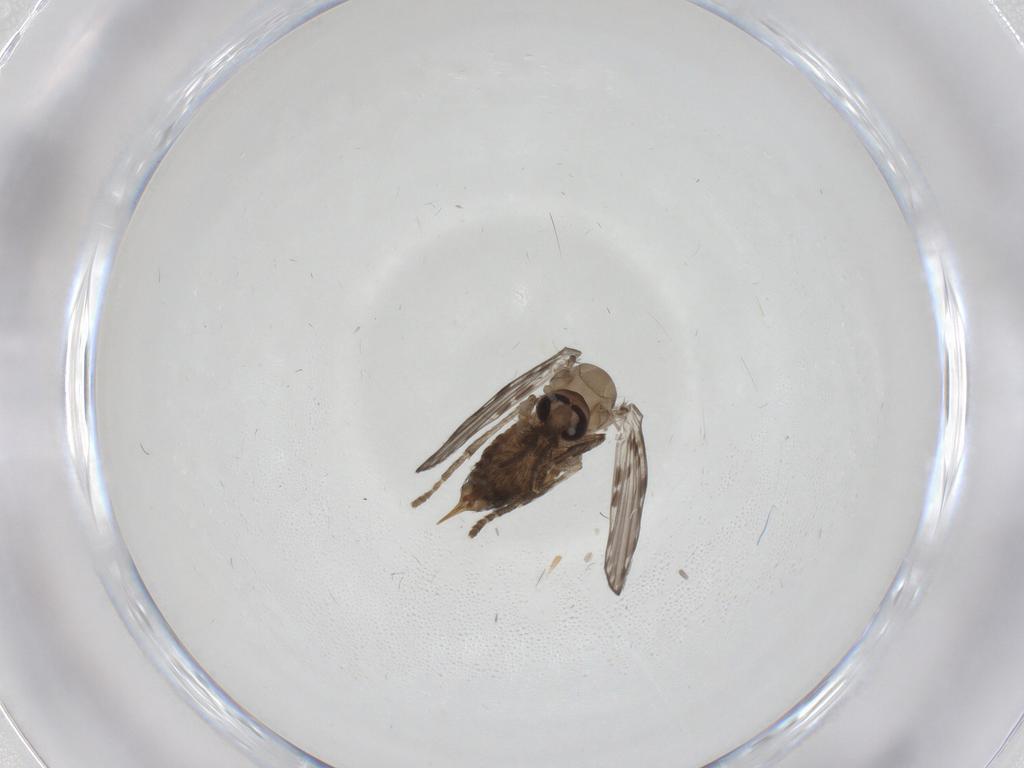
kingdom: Animalia
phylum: Arthropoda
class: Insecta
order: Diptera
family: Psychodidae
